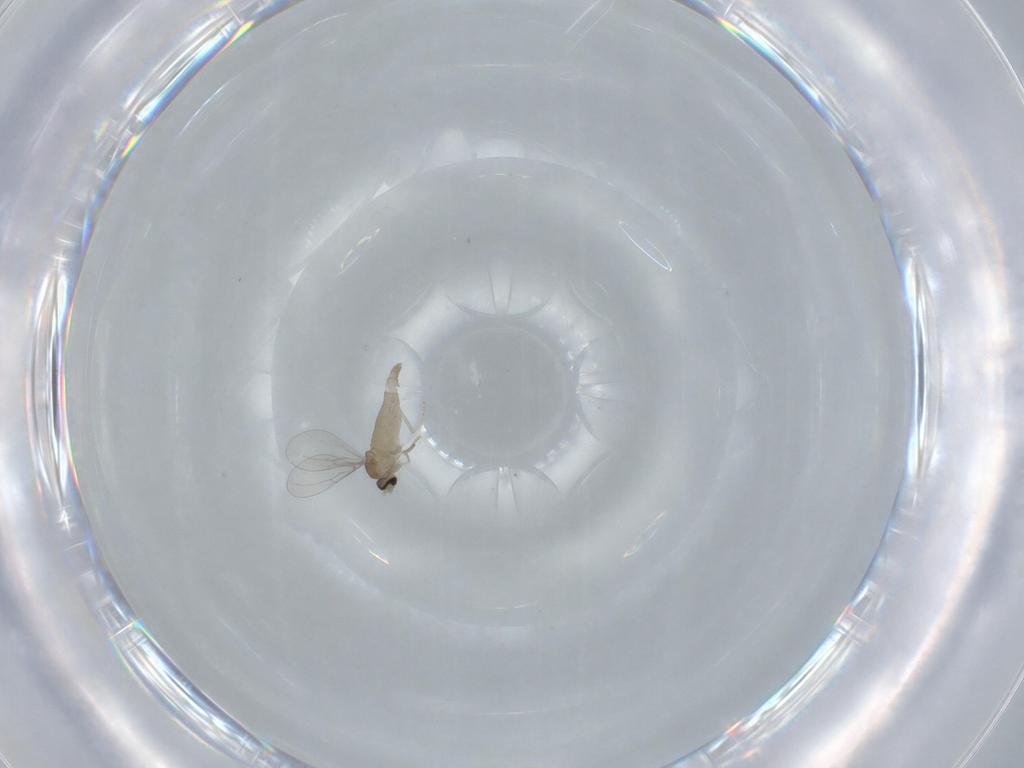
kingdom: Animalia
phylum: Arthropoda
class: Insecta
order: Diptera
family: Cecidomyiidae
